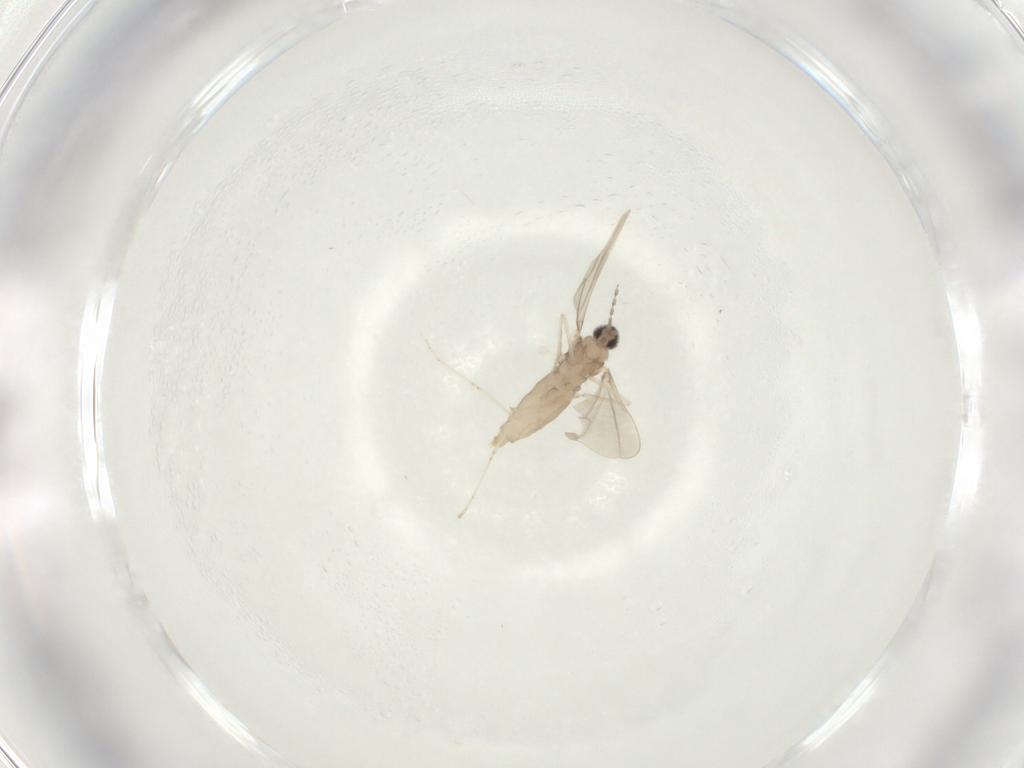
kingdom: Animalia
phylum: Arthropoda
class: Insecta
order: Diptera
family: Cecidomyiidae
